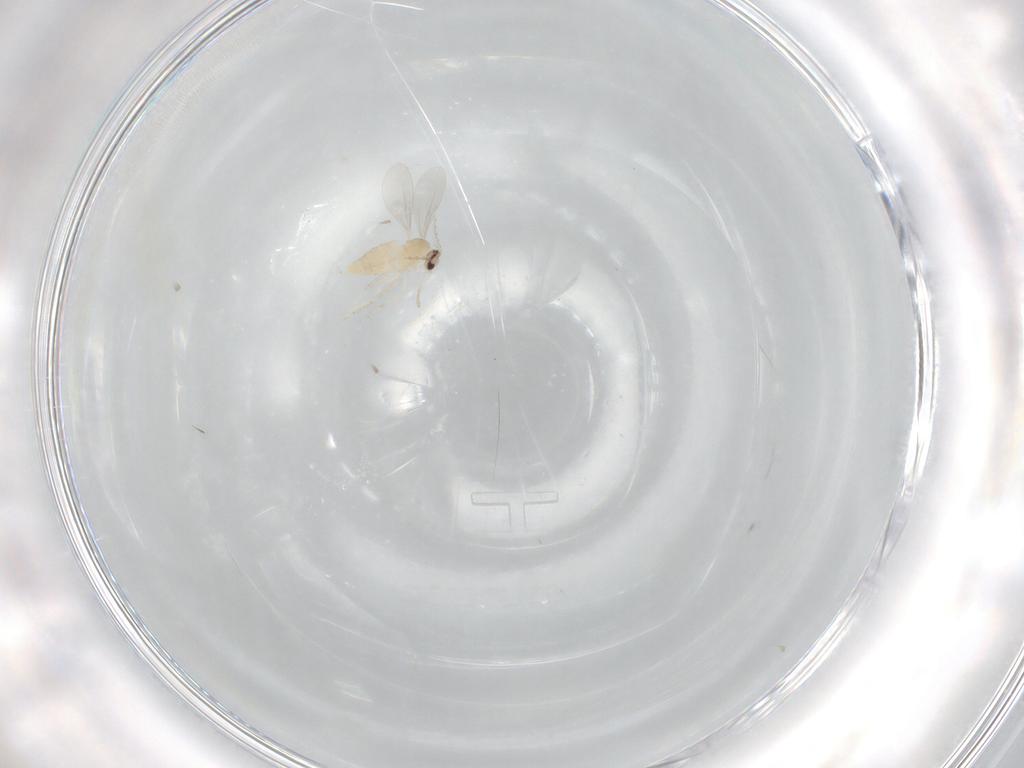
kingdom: Animalia
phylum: Arthropoda
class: Insecta
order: Diptera
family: Cecidomyiidae
